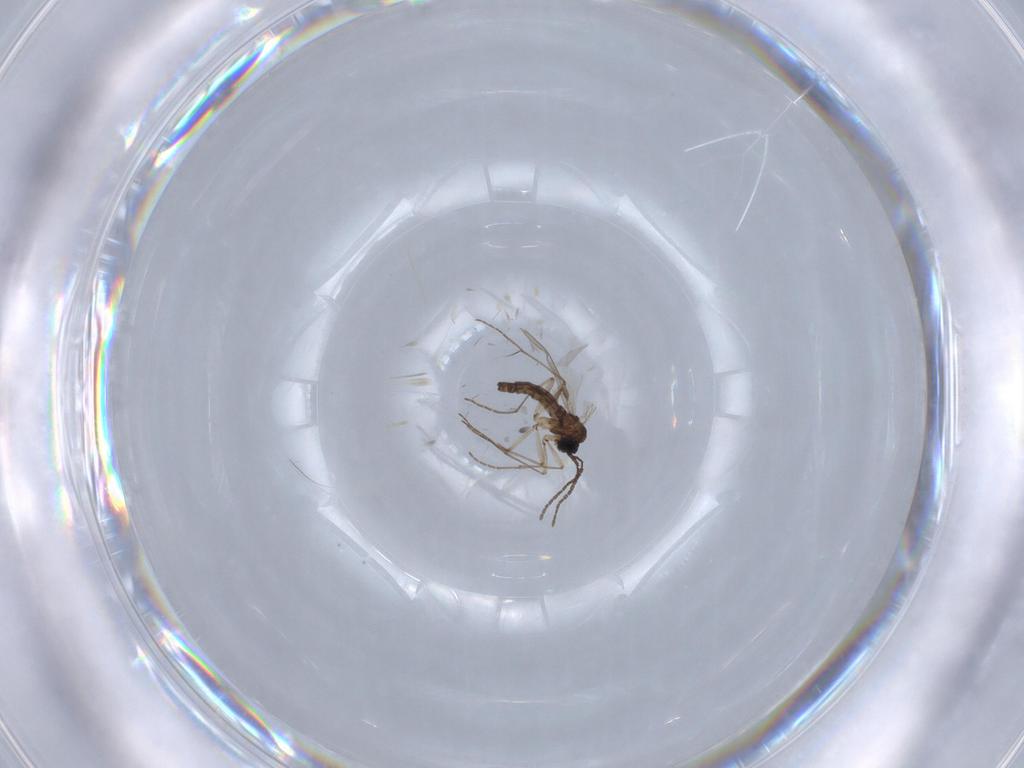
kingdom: Animalia
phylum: Arthropoda
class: Insecta
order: Diptera
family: Sciaridae
